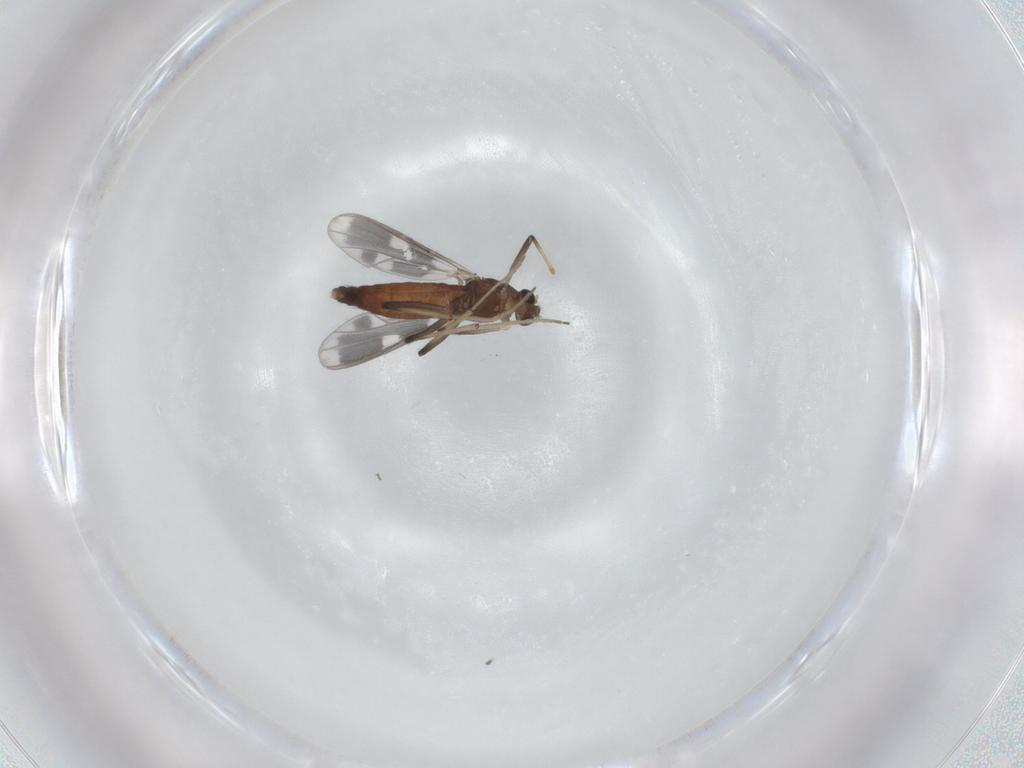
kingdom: Animalia
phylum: Arthropoda
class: Insecta
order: Diptera
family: Chironomidae
